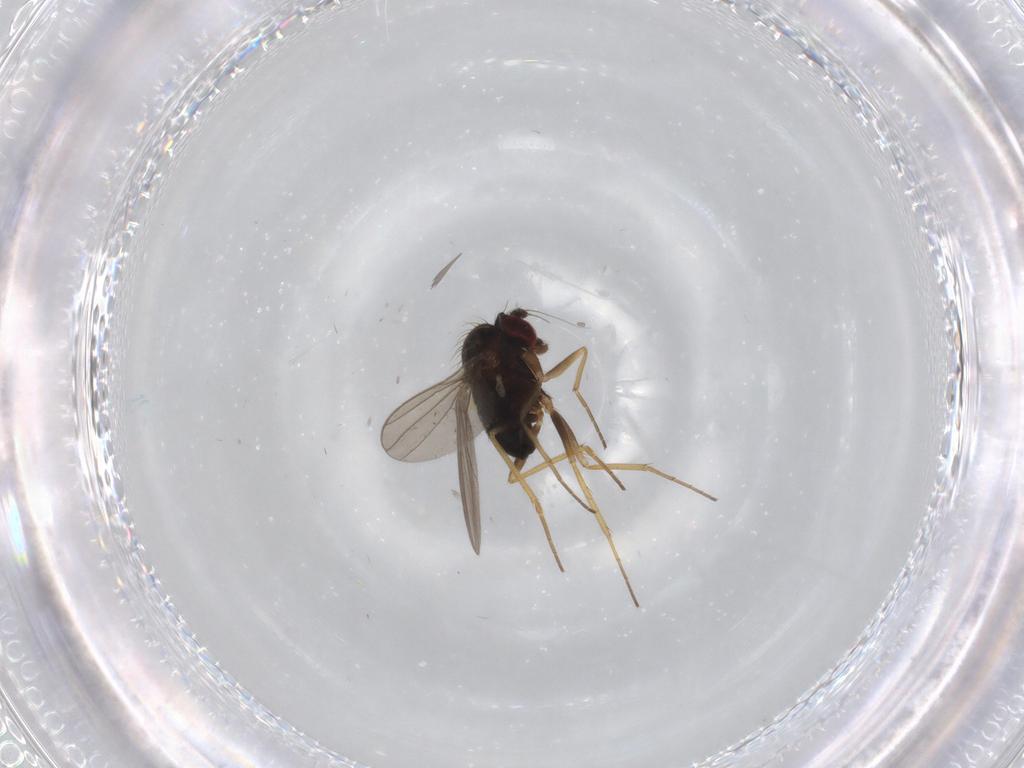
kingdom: Animalia
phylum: Arthropoda
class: Insecta
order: Diptera
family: Phoridae
